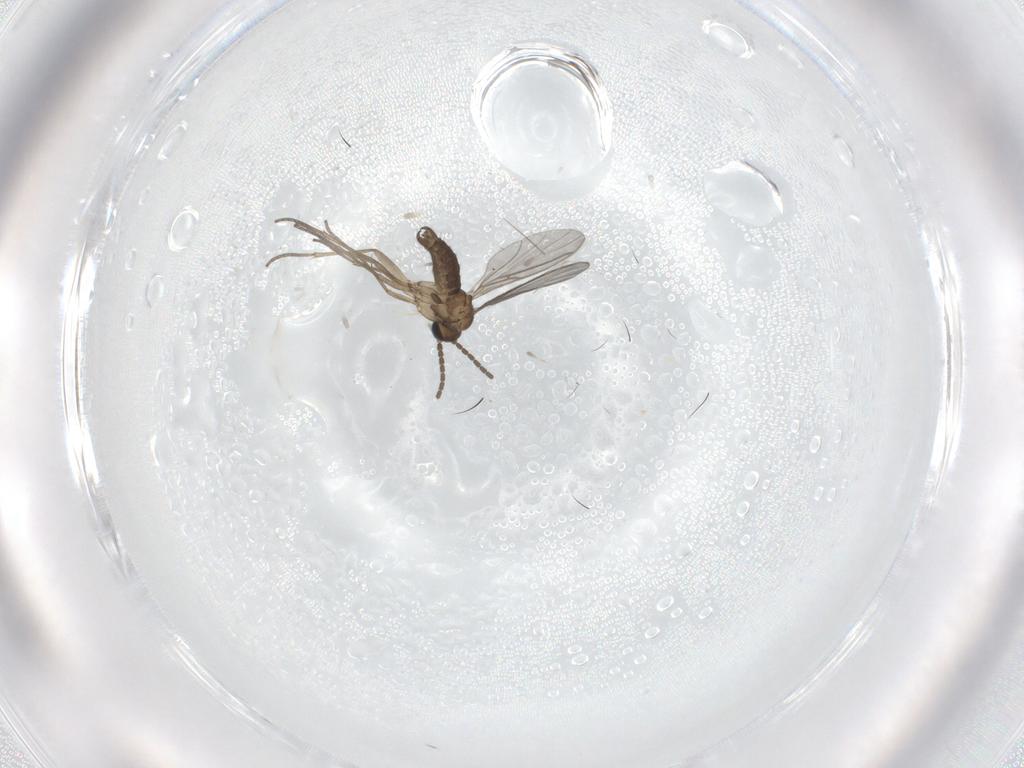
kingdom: Animalia
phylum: Arthropoda
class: Insecta
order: Diptera
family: Sciaridae
